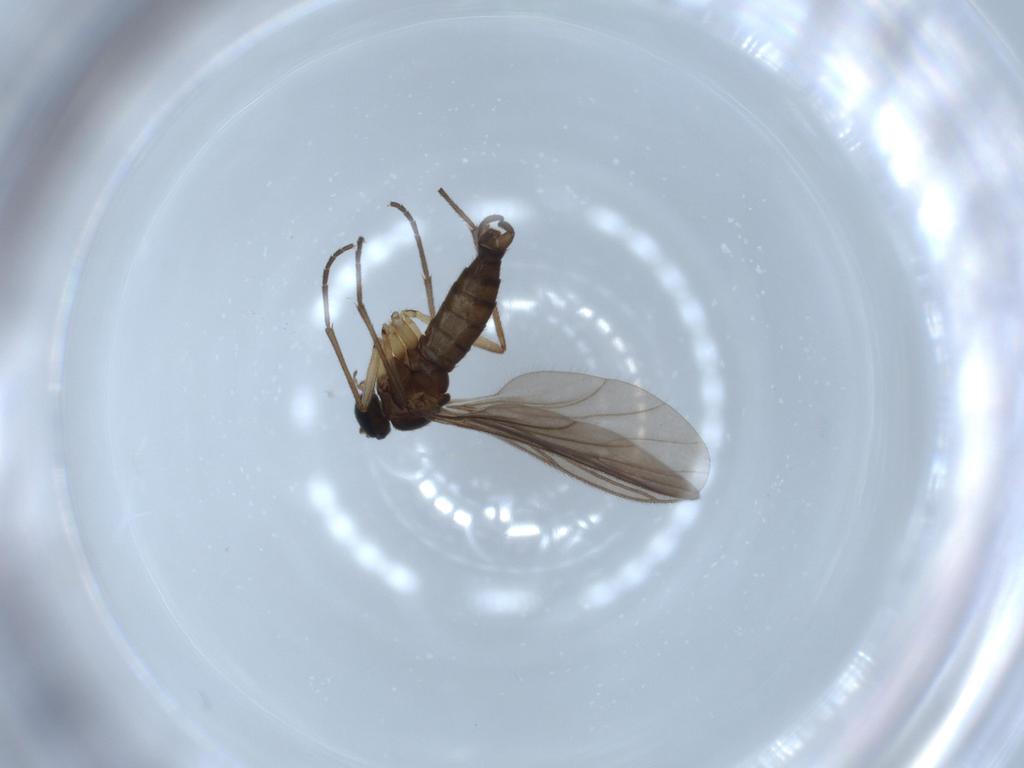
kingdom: Animalia
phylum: Arthropoda
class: Insecta
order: Diptera
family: Sciaridae
